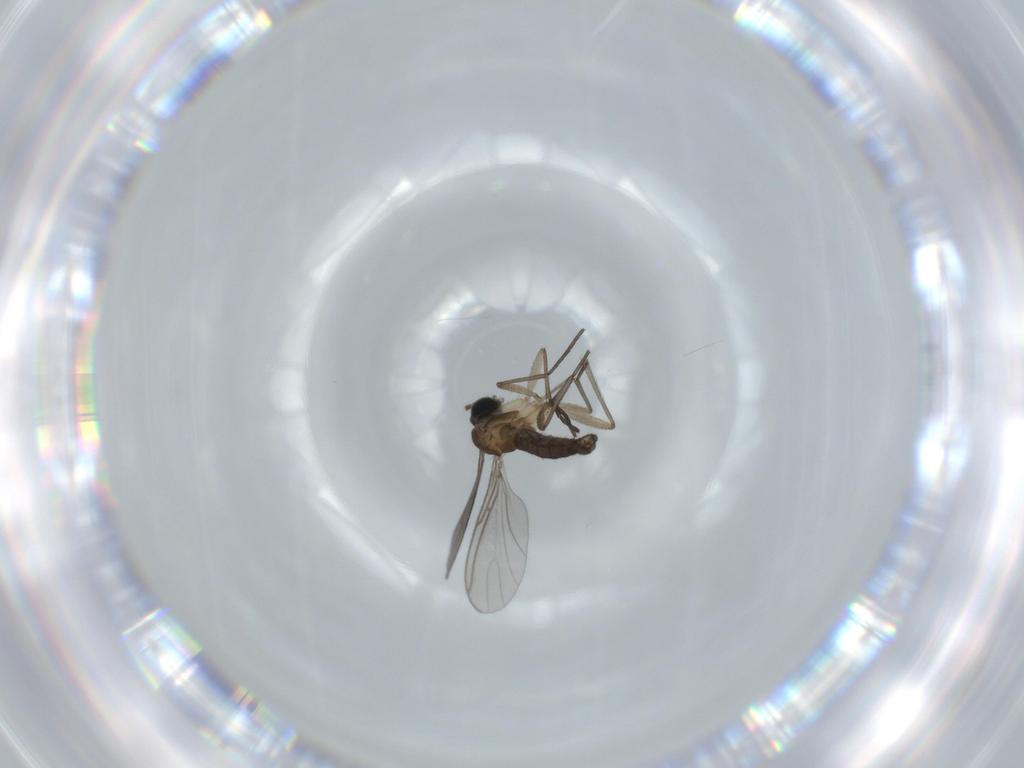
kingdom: Animalia
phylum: Arthropoda
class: Insecta
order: Diptera
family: Sciaridae
